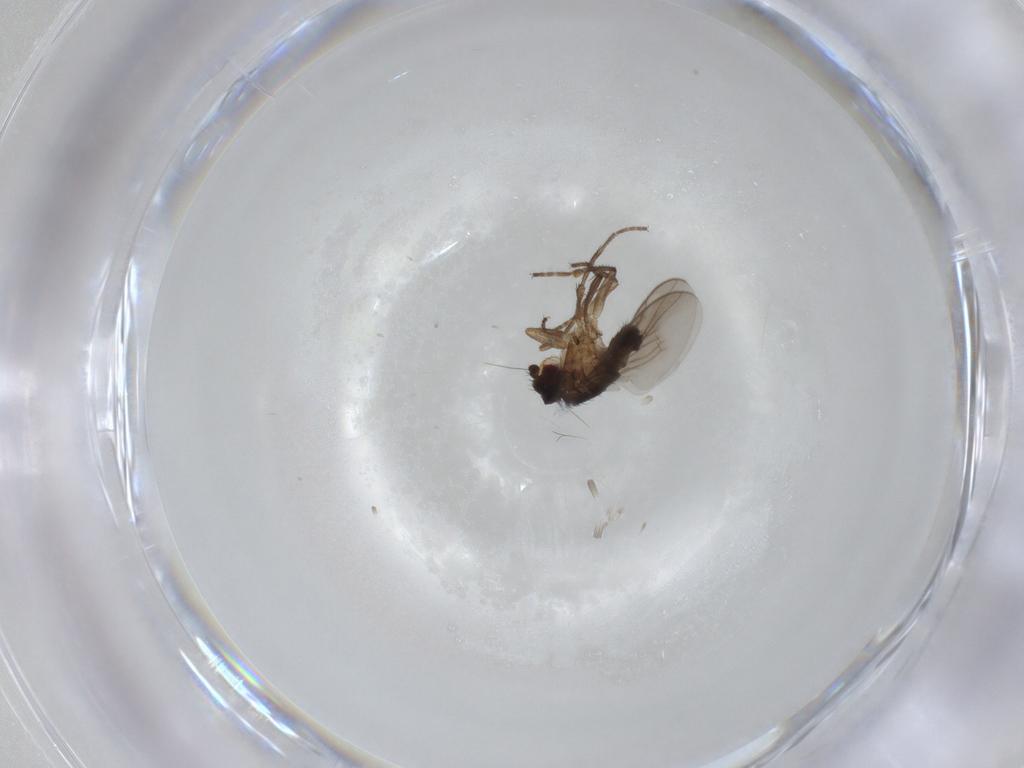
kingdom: Animalia
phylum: Arthropoda
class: Insecta
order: Diptera
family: Sphaeroceridae
